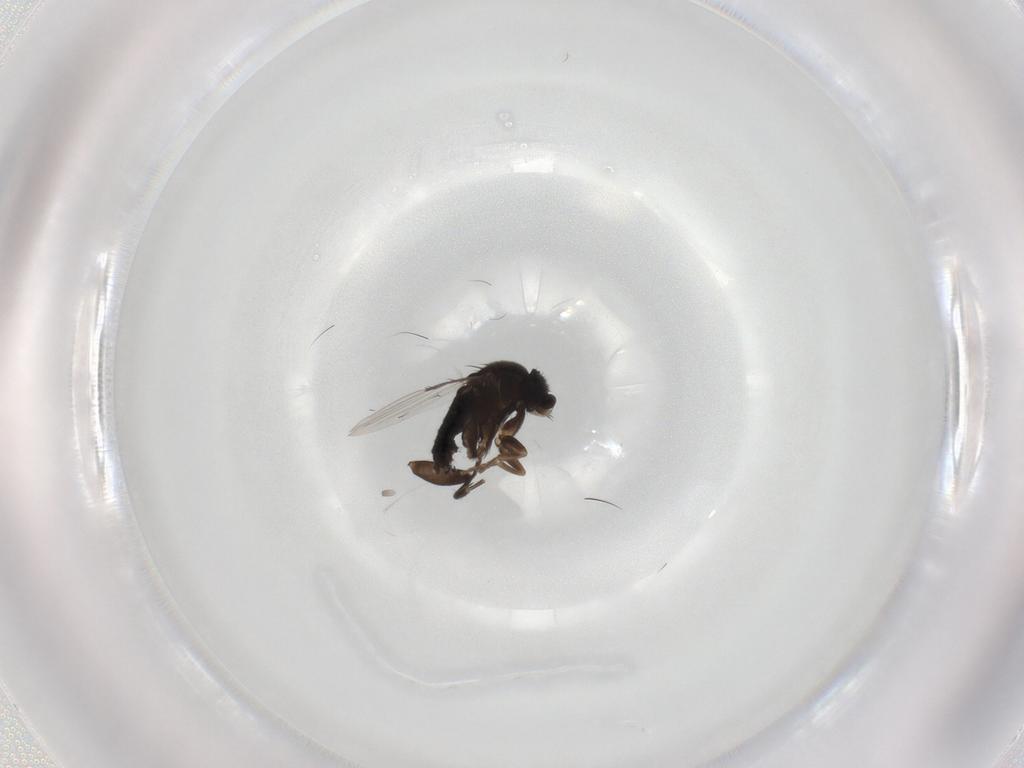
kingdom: Animalia
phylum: Arthropoda
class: Insecta
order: Diptera
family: Phoridae
